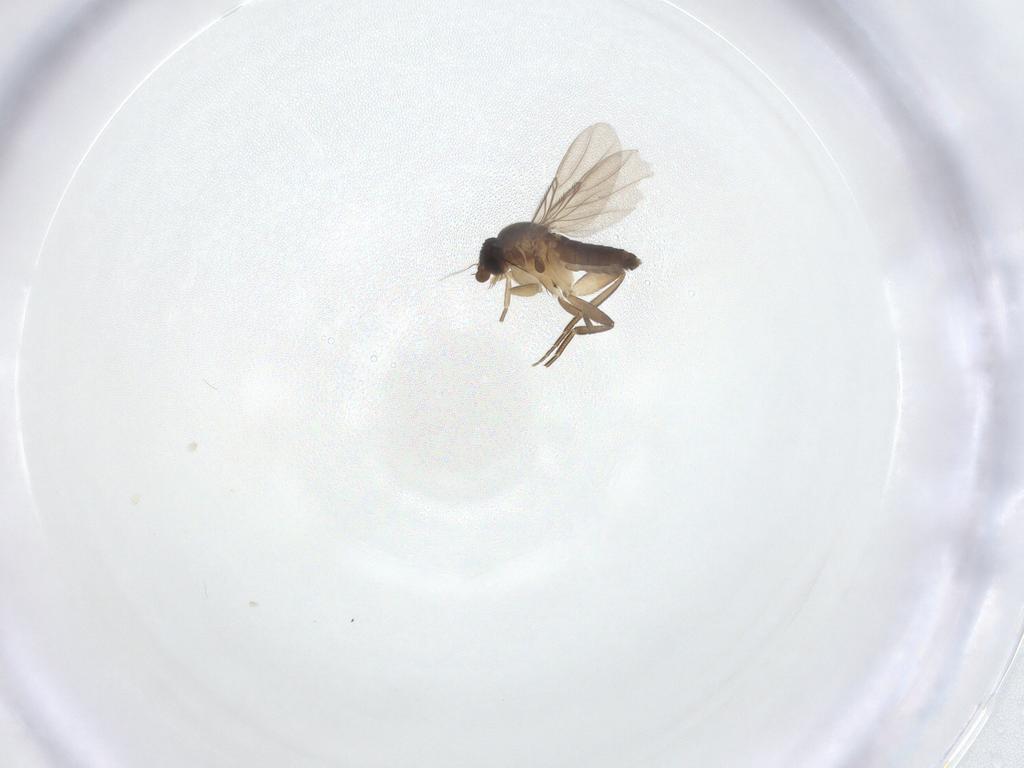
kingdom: Animalia
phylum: Arthropoda
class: Insecta
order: Diptera
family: Phoridae
